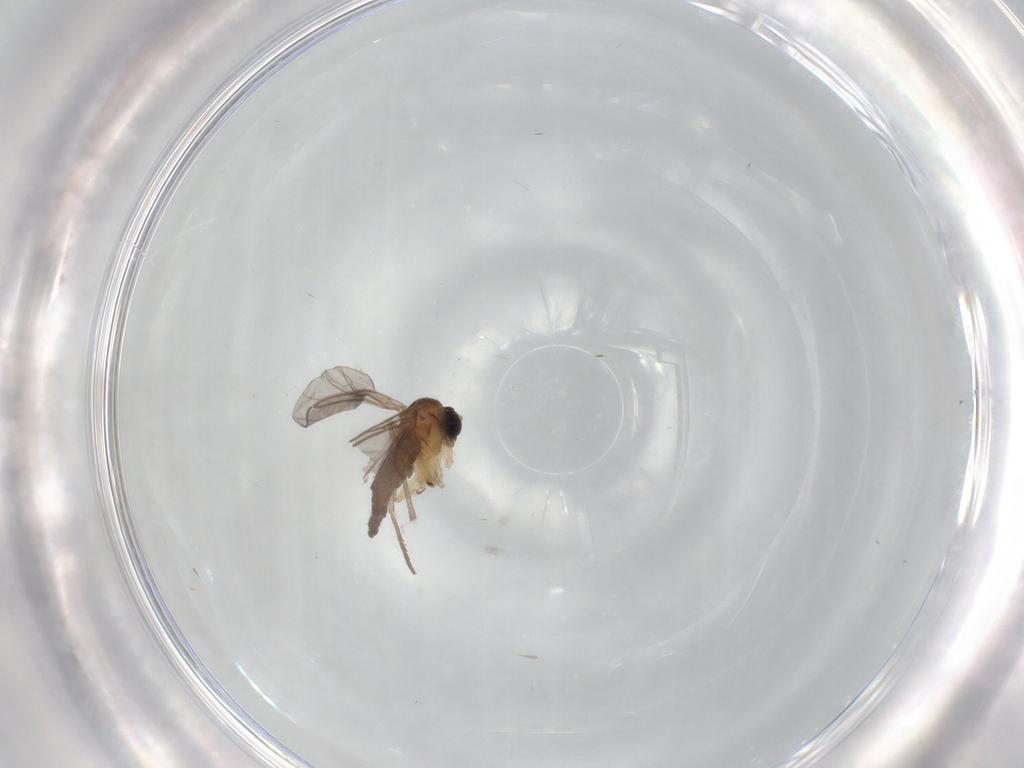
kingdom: Animalia
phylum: Arthropoda
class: Insecta
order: Diptera
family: Sciaridae
